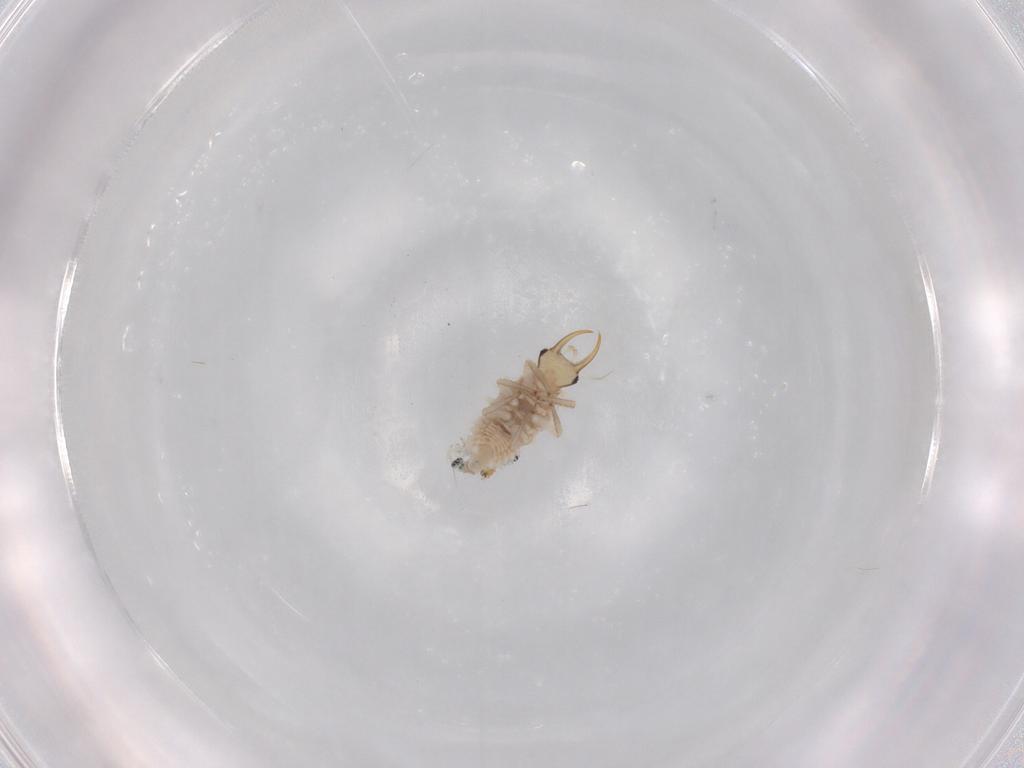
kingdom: Animalia
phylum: Arthropoda
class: Insecta
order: Neuroptera
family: Chrysopidae
